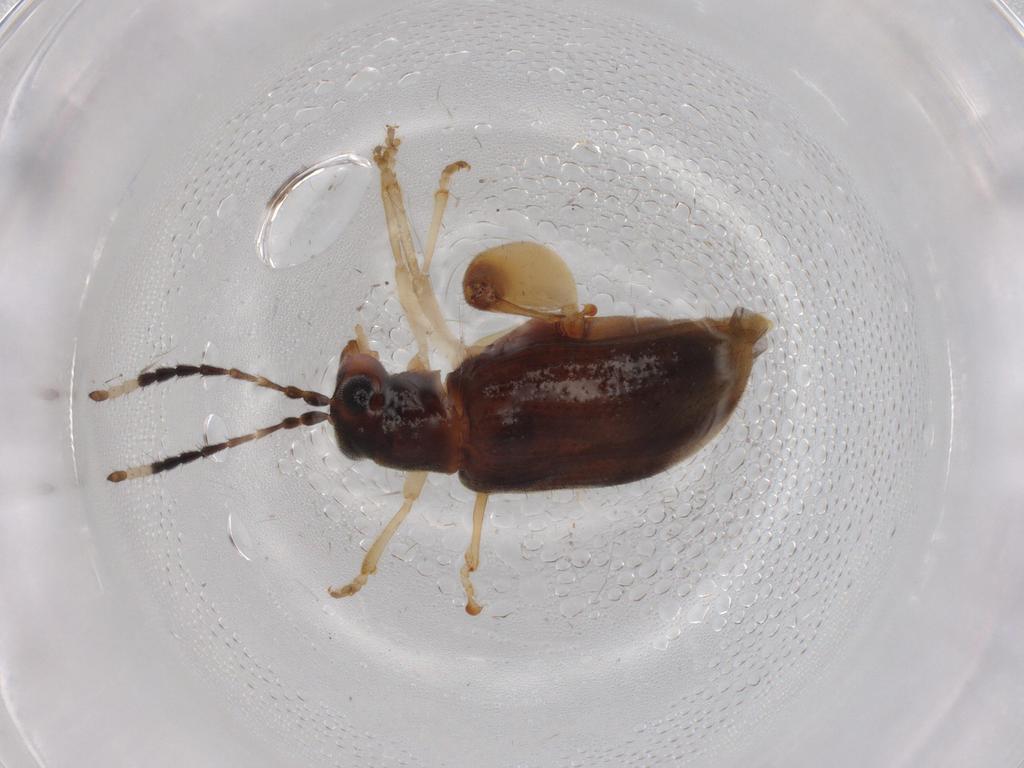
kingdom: Animalia
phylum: Arthropoda
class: Insecta
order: Coleoptera
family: Chrysomelidae
